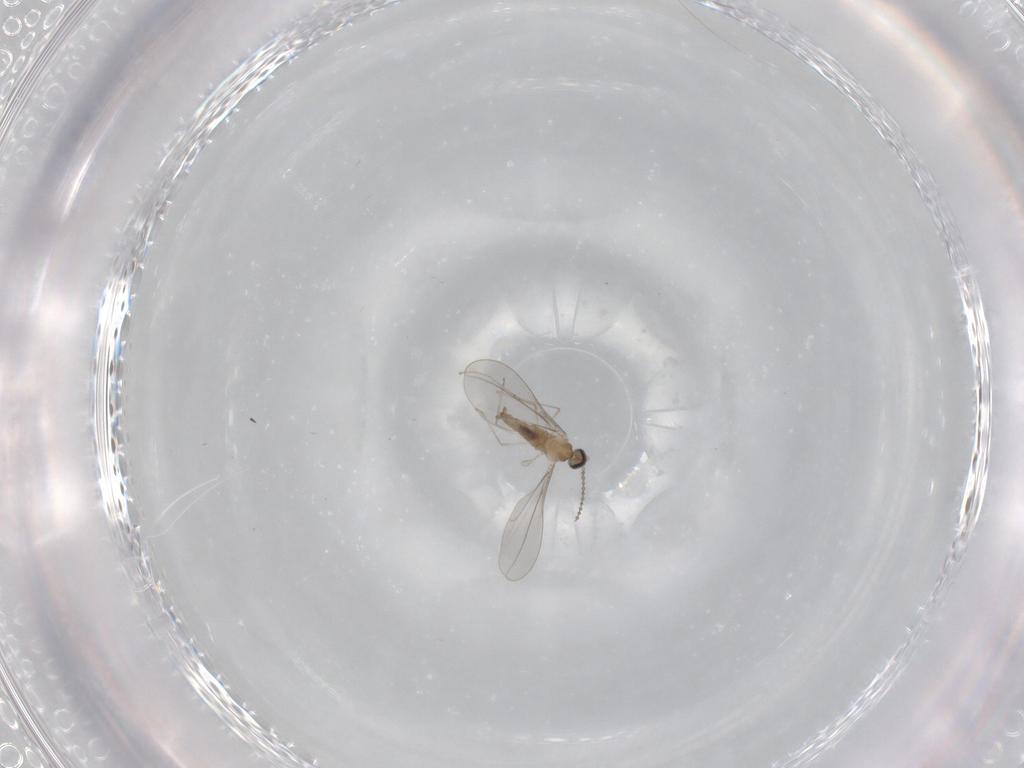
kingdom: Animalia
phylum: Arthropoda
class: Insecta
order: Diptera
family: Sciaridae
